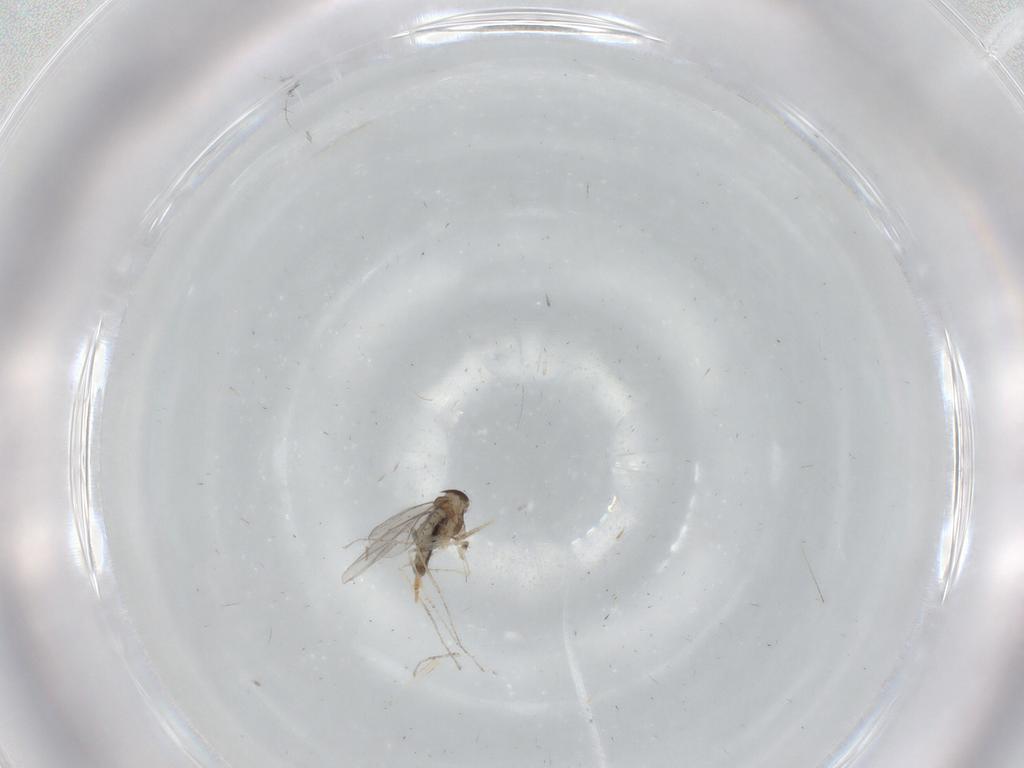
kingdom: Animalia
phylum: Arthropoda
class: Insecta
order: Diptera
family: Cecidomyiidae
